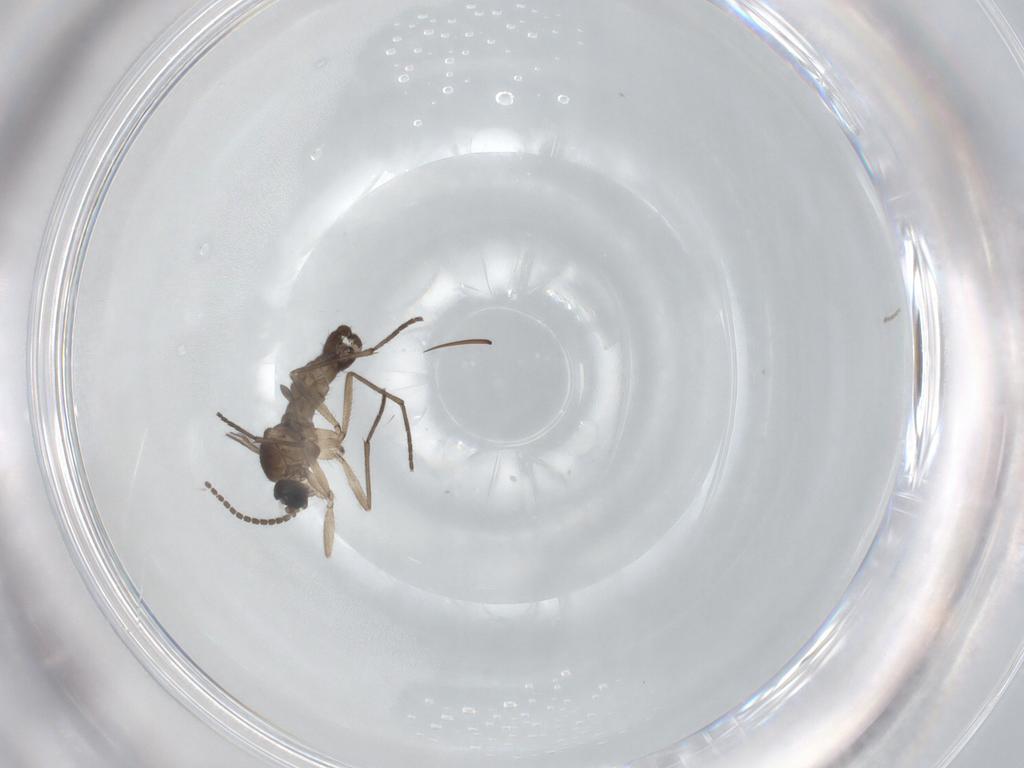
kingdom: Animalia
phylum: Arthropoda
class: Insecta
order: Diptera
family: Sciaridae
